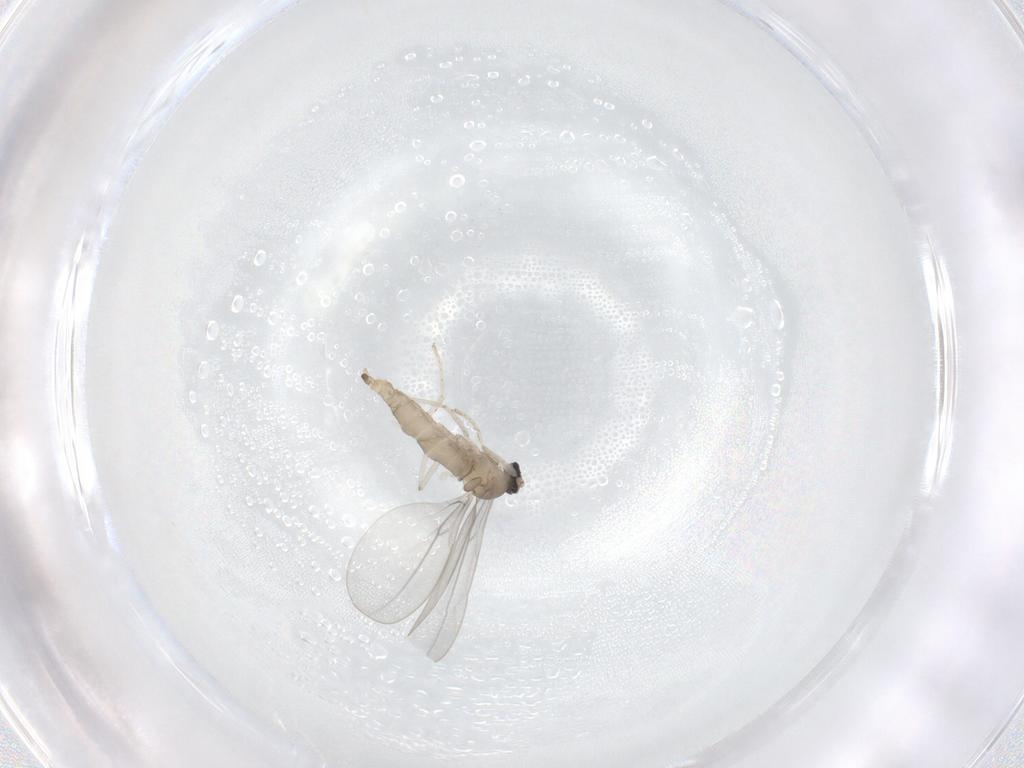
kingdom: Animalia
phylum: Arthropoda
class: Insecta
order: Diptera
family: Cecidomyiidae
